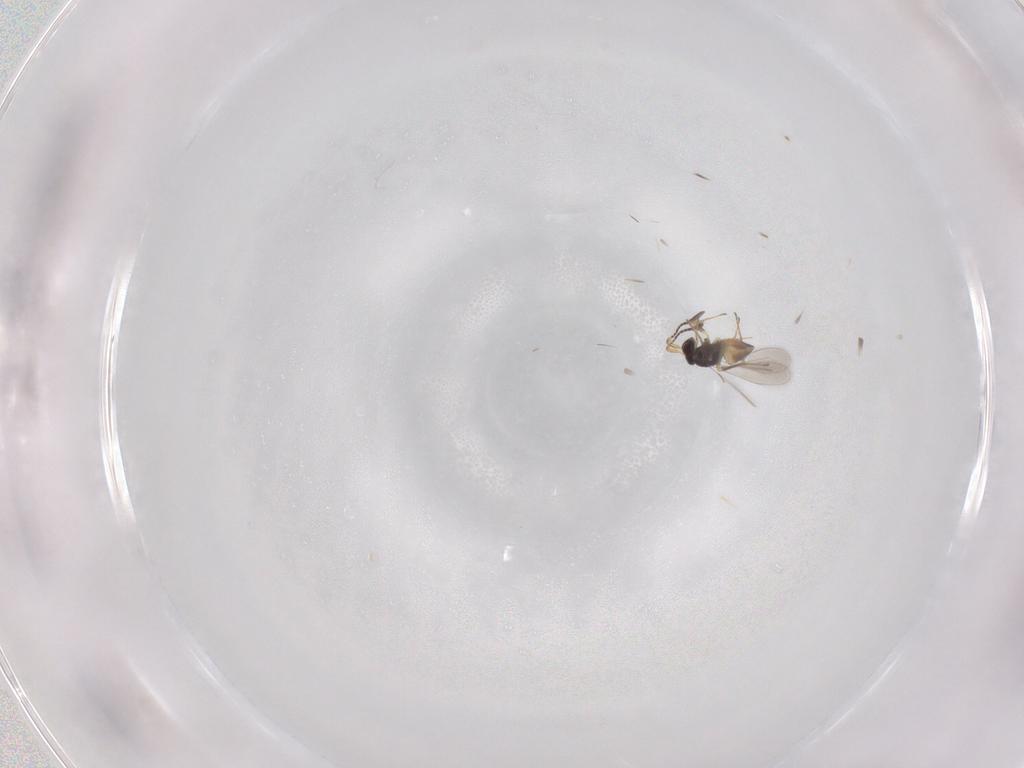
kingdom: Animalia
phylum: Arthropoda
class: Insecta
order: Hymenoptera
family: Mymaridae
